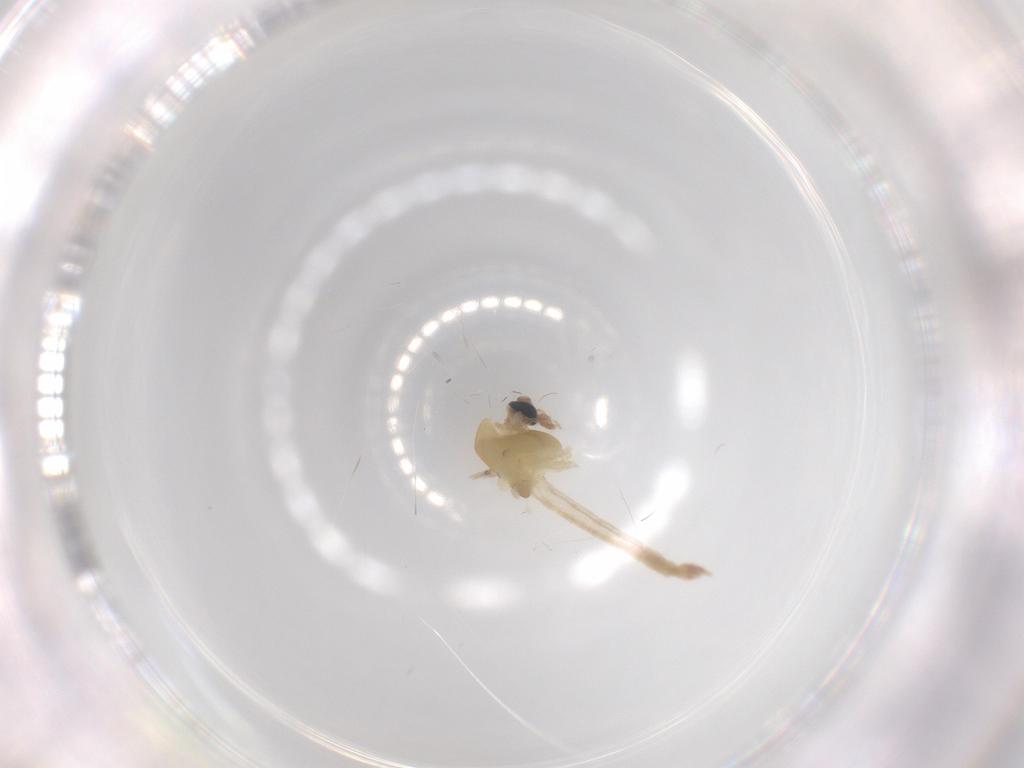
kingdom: Animalia
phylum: Arthropoda
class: Insecta
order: Diptera
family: Chironomidae
